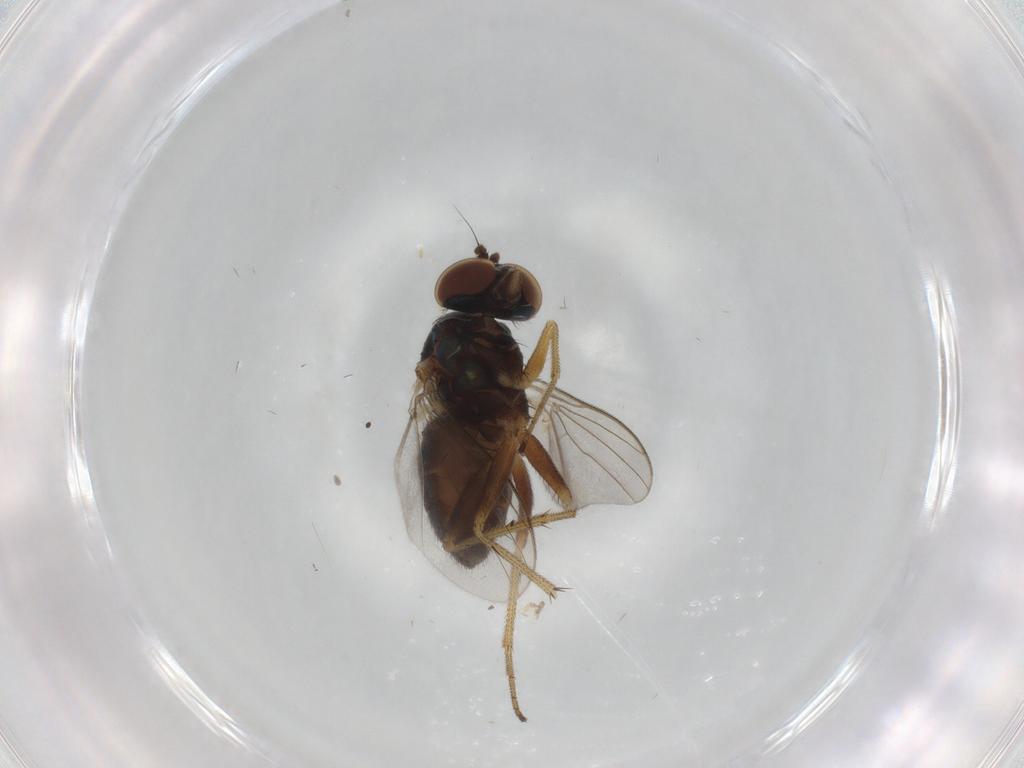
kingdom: Animalia
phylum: Arthropoda
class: Insecta
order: Diptera
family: Dolichopodidae
